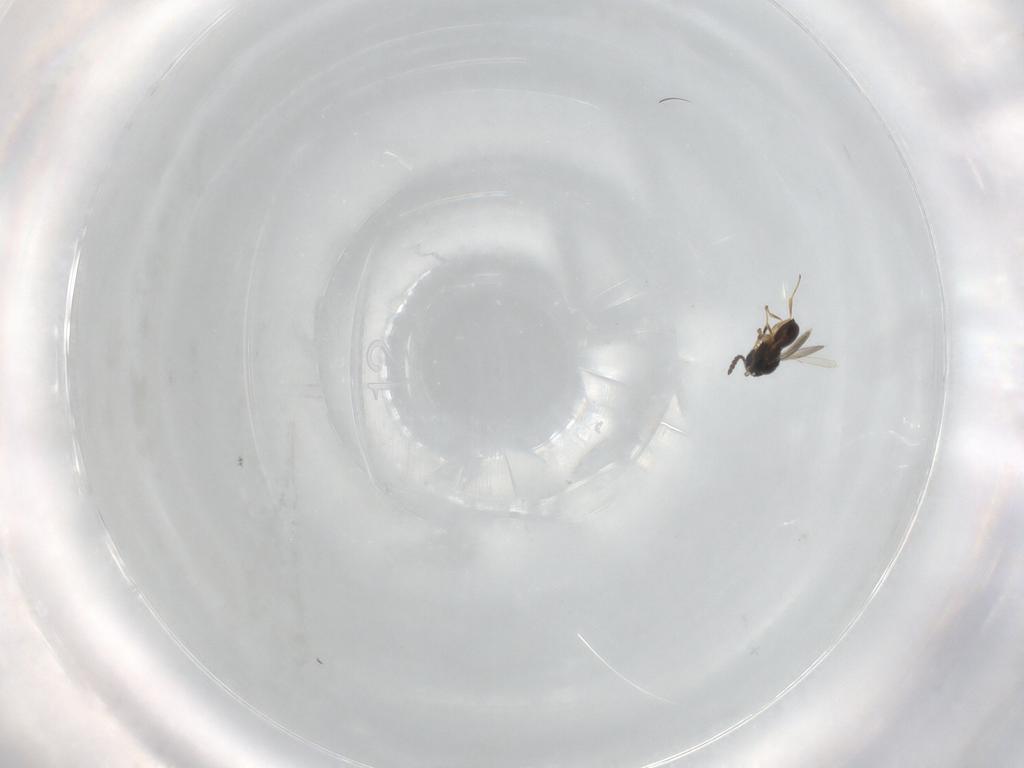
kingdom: Animalia
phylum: Arthropoda
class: Insecta
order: Hymenoptera
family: Scelionidae
